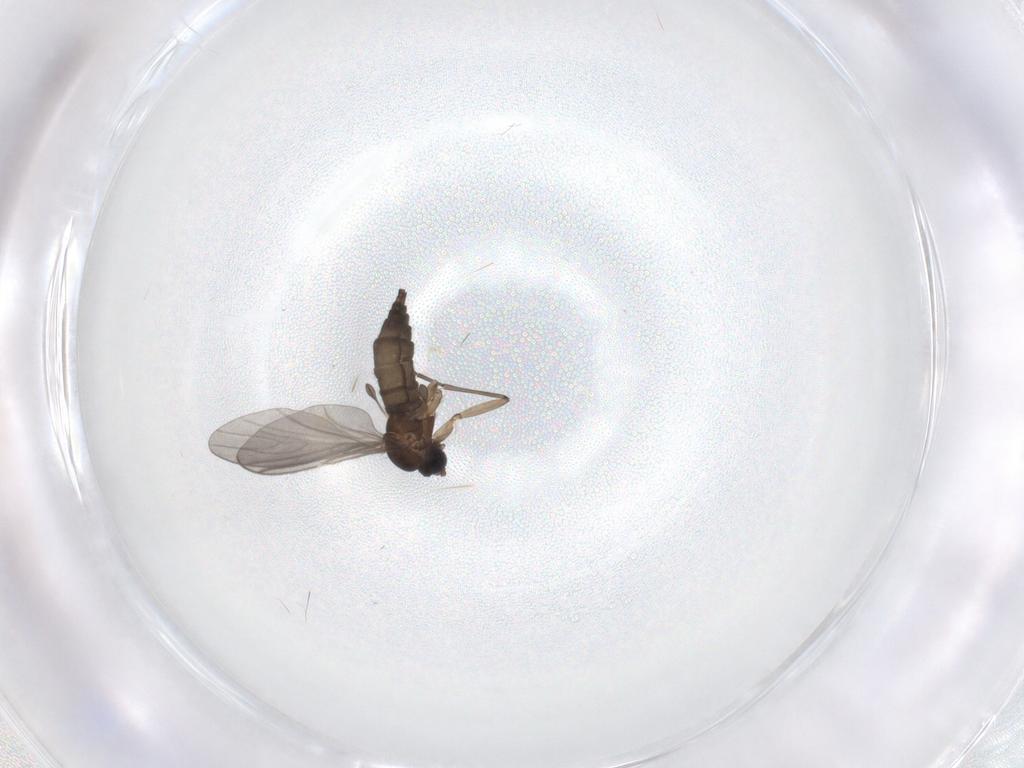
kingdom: Animalia
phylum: Arthropoda
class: Insecta
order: Diptera
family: Sciaridae
